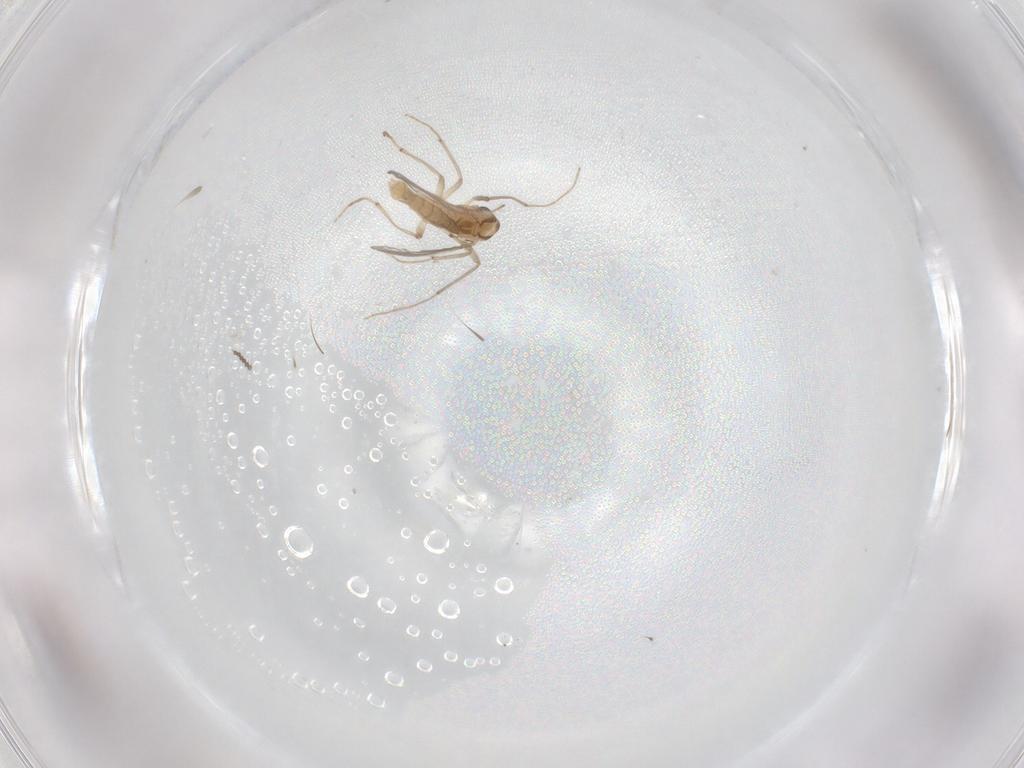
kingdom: Animalia
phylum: Arthropoda
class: Insecta
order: Diptera
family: Chironomidae
